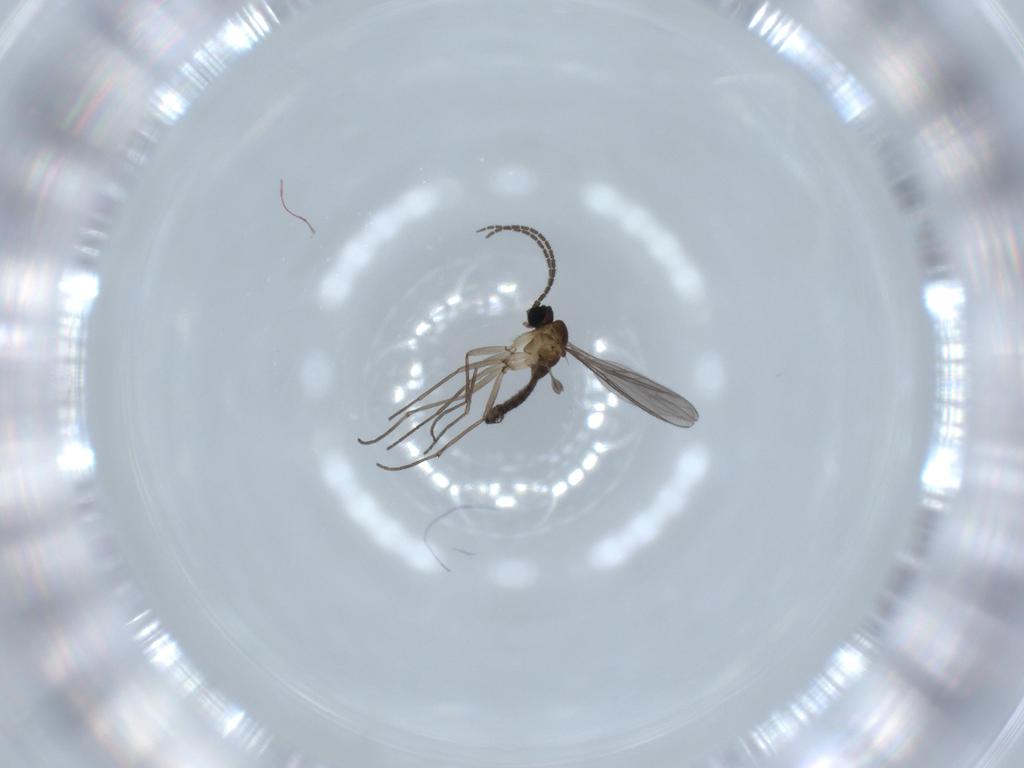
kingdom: Animalia
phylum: Arthropoda
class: Insecta
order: Diptera
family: Sciaridae
